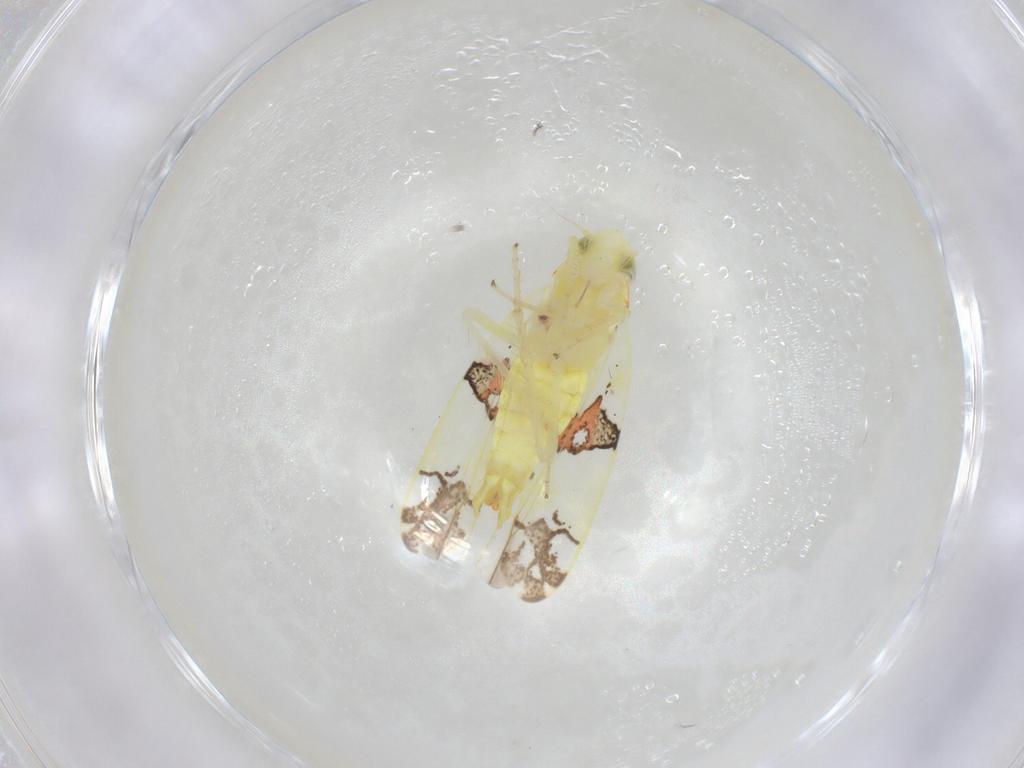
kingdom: Animalia
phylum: Arthropoda
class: Insecta
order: Hemiptera
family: Cicadellidae
